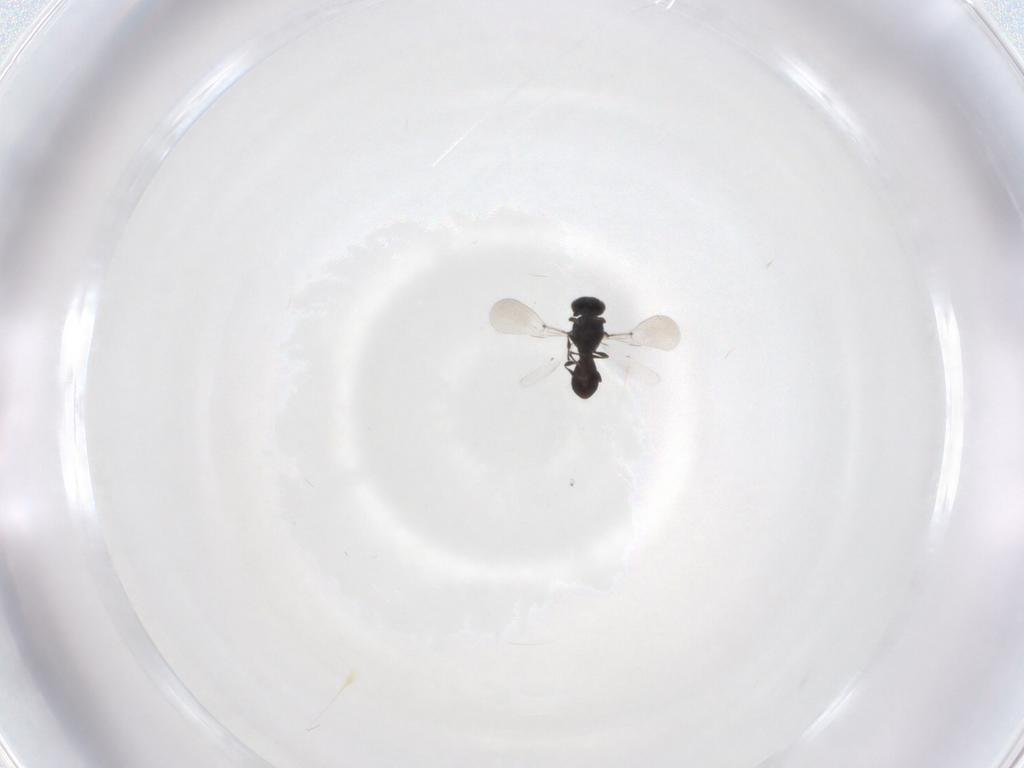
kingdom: Animalia
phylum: Arthropoda
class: Insecta
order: Hymenoptera
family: Formicidae
